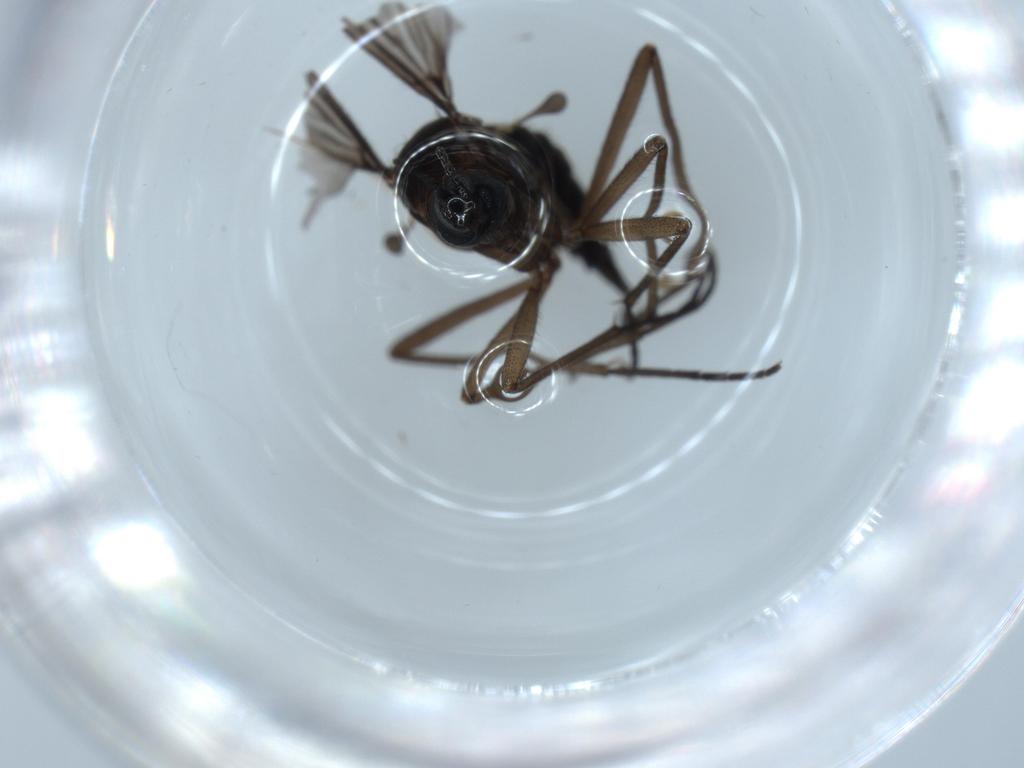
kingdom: Animalia
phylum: Arthropoda
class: Insecta
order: Diptera
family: Sciaridae
